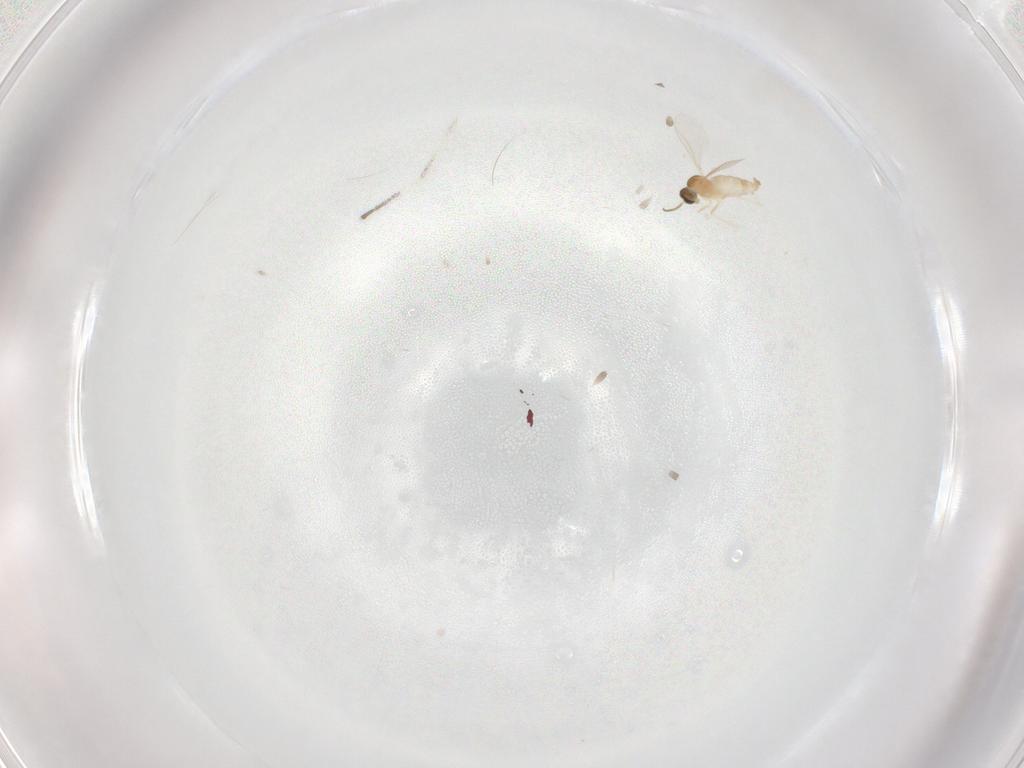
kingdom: Animalia
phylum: Arthropoda
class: Insecta
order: Diptera
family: Cecidomyiidae
